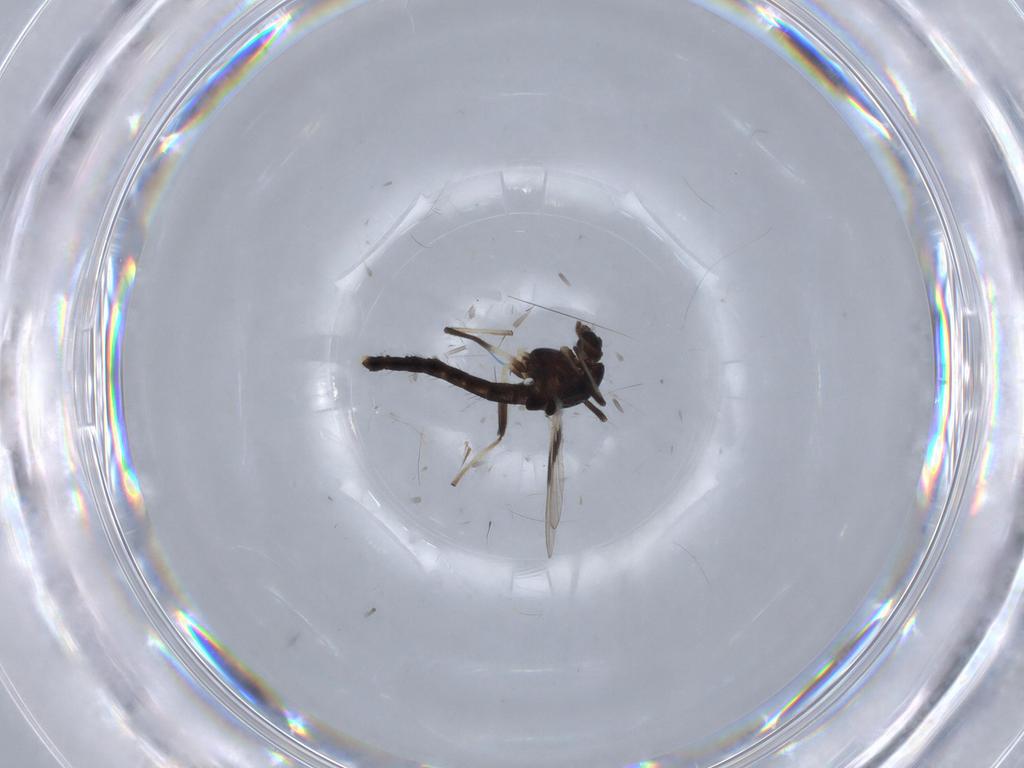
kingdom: Animalia
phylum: Arthropoda
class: Insecta
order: Diptera
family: Chironomidae
